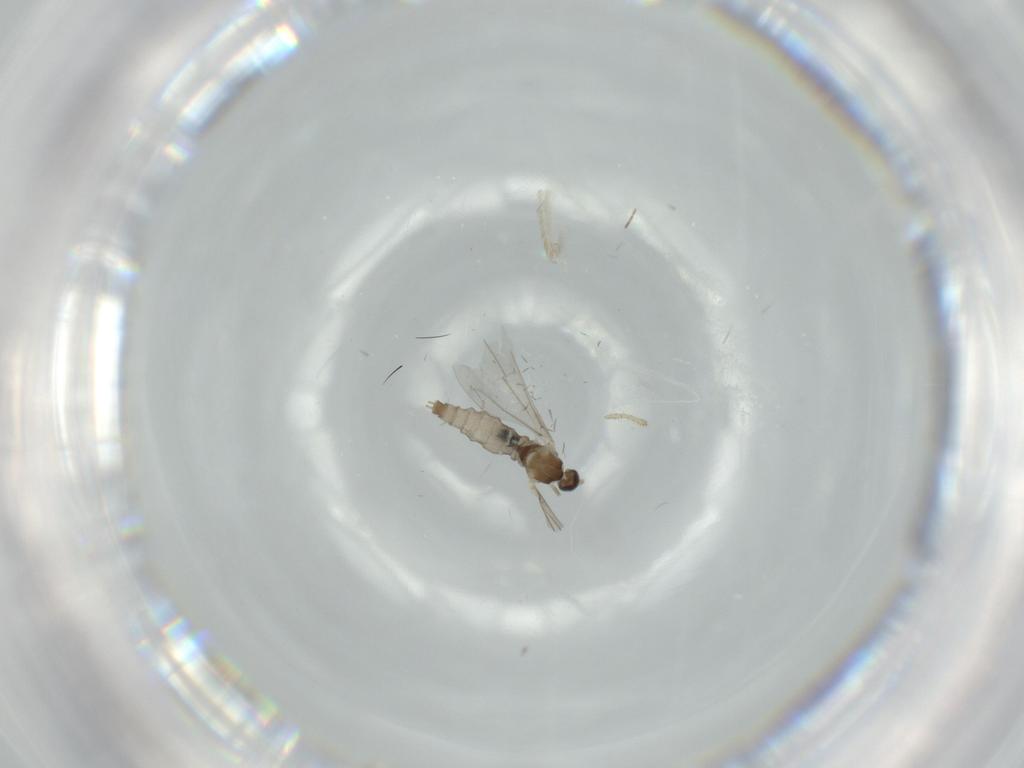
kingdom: Animalia
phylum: Arthropoda
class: Insecta
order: Diptera
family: Cecidomyiidae
